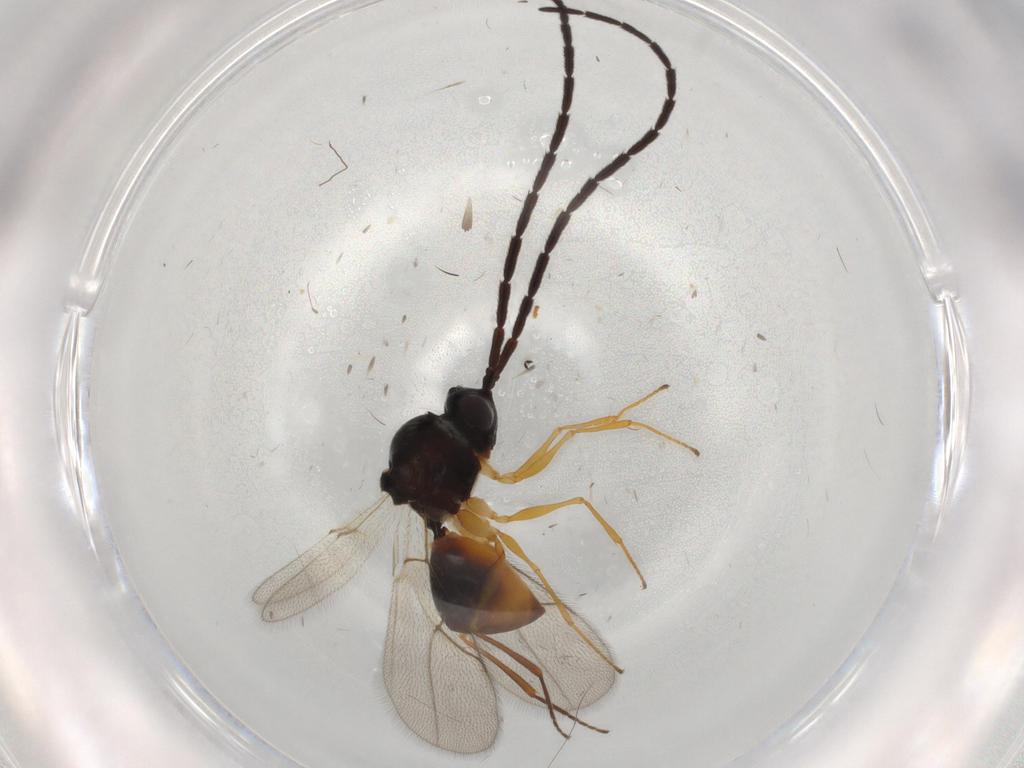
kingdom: Animalia
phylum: Arthropoda
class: Insecta
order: Hymenoptera
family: Figitidae
